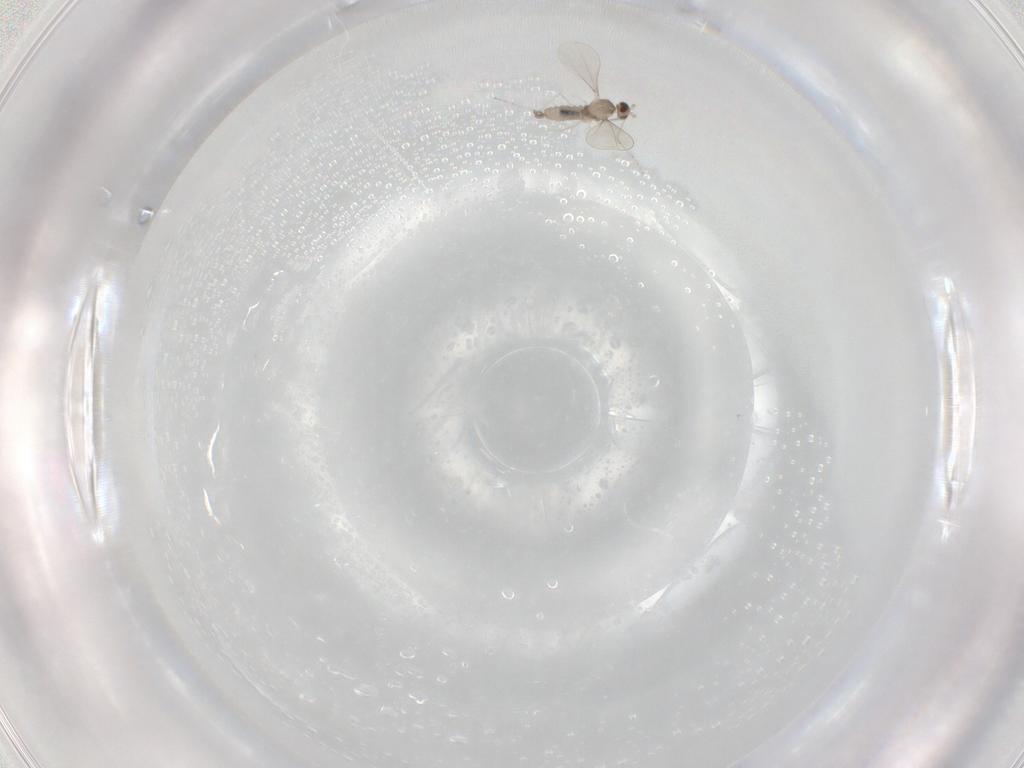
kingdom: Animalia
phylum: Arthropoda
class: Insecta
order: Diptera
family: Cecidomyiidae
